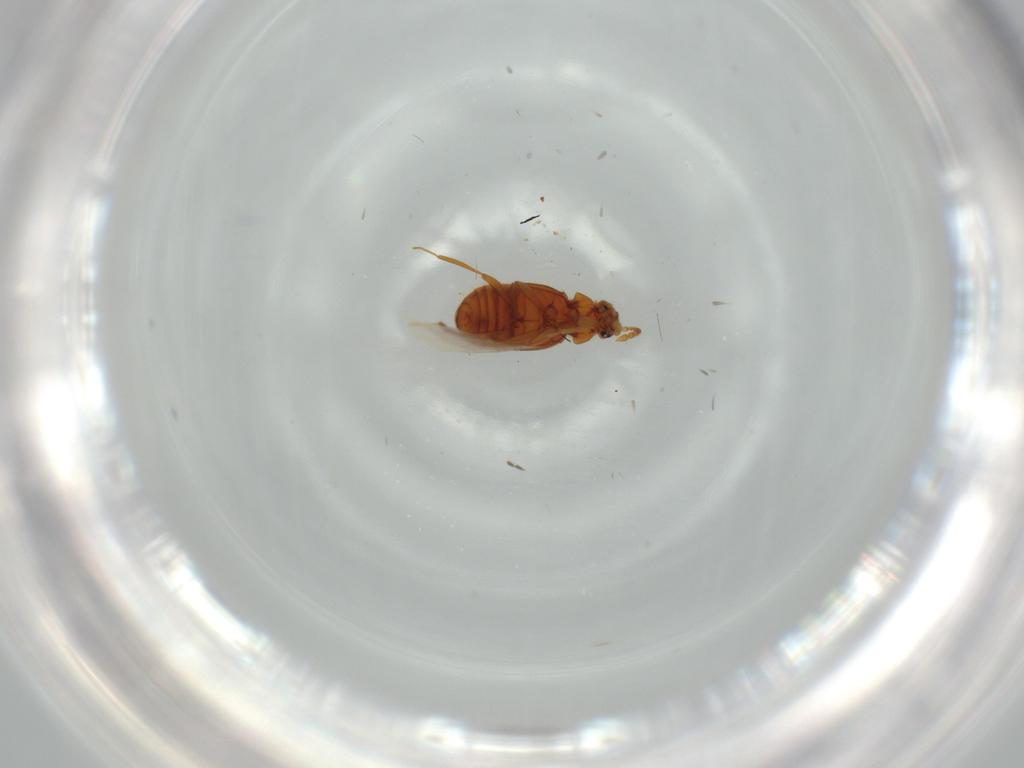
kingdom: Animalia
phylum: Arthropoda
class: Insecta
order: Coleoptera
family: Staphylinidae
